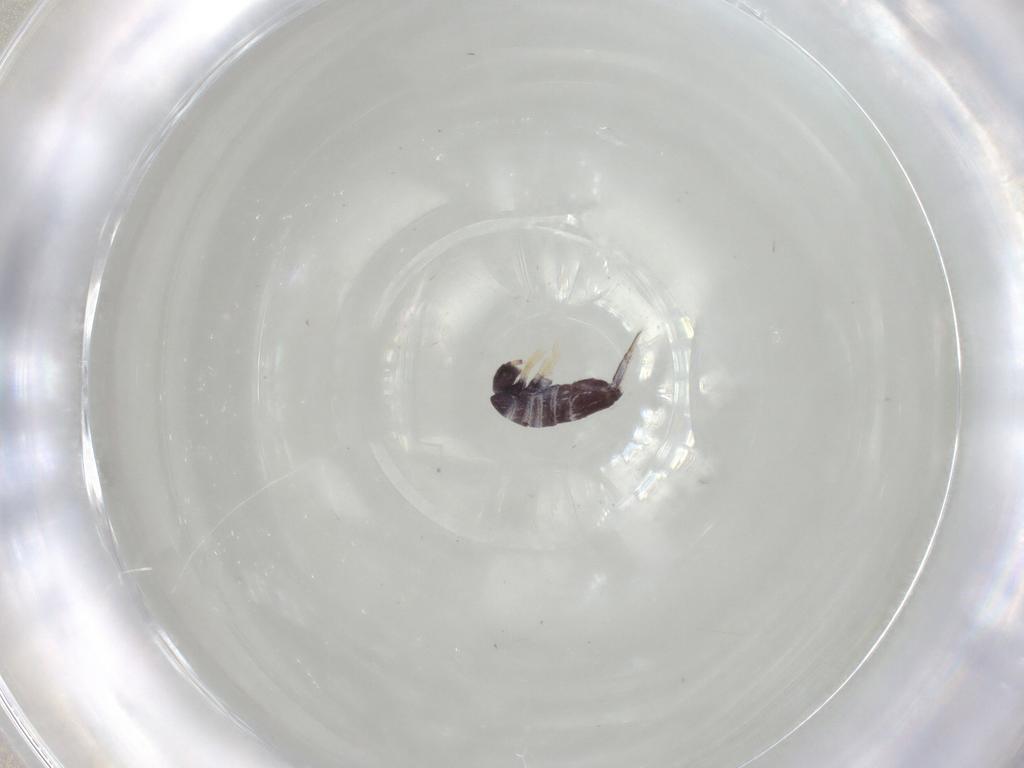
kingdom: Animalia
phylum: Arthropoda
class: Collembola
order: Entomobryomorpha
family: Entomobryidae
